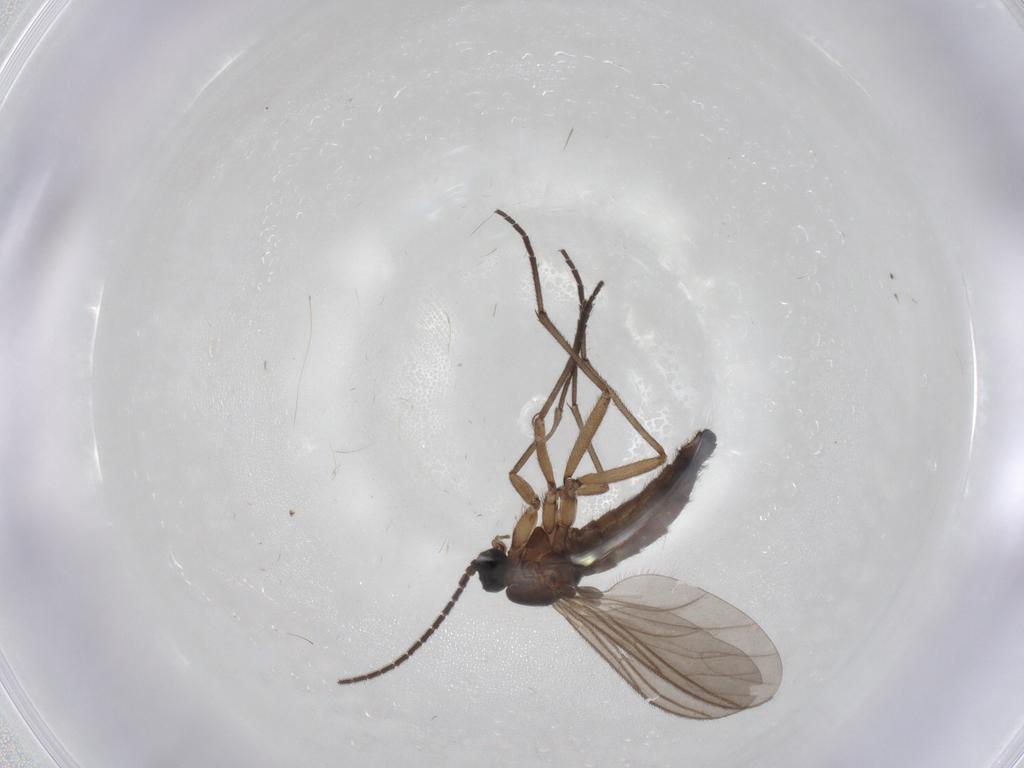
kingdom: Animalia
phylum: Arthropoda
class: Insecta
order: Diptera
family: Sciaridae
